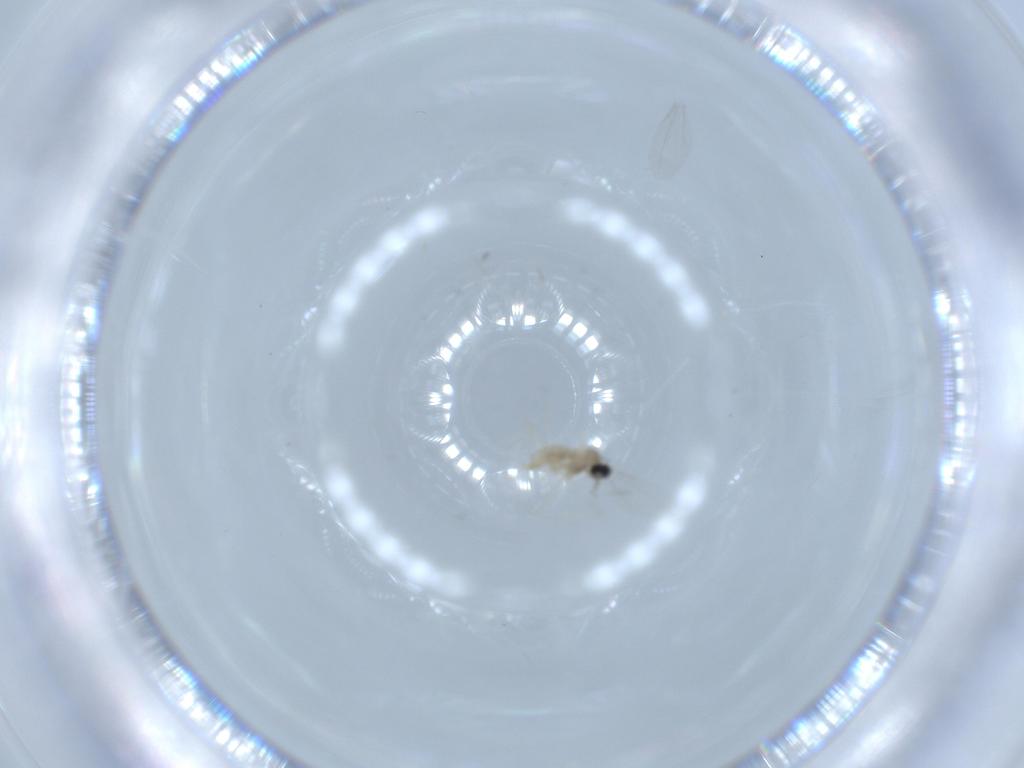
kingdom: Animalia
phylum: Arthropoda
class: Insecta
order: Diptera
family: Cecidomyiidae
